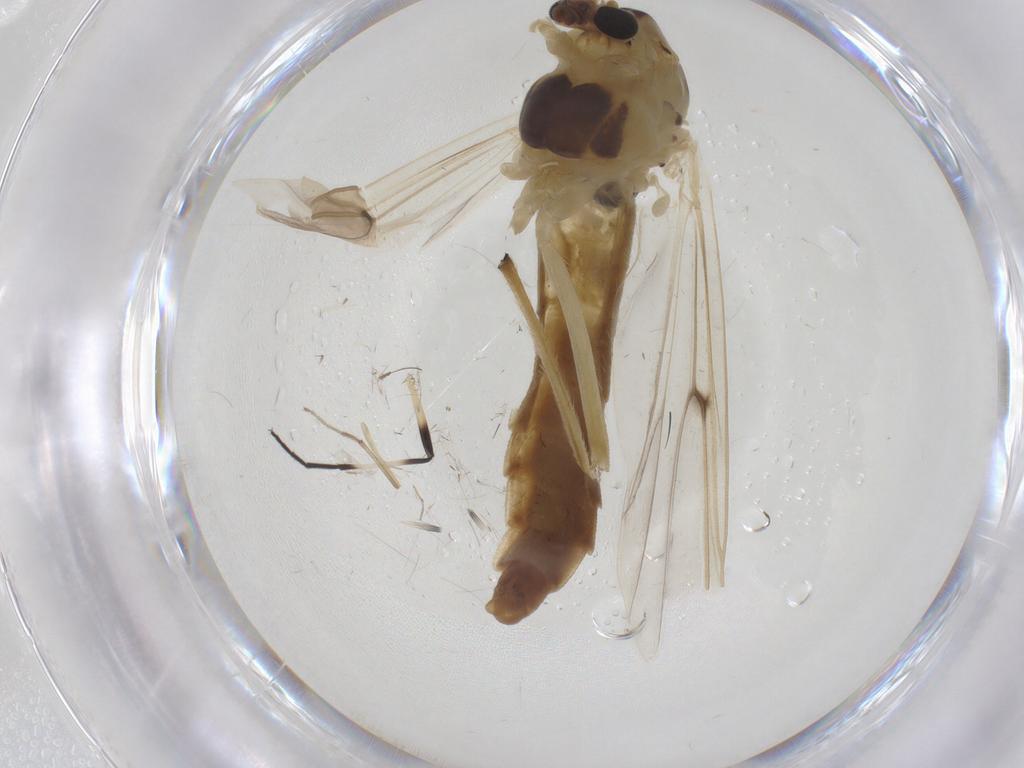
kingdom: Animalia
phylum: Arthropoda
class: Insecta
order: Diptera
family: Chironomidae
